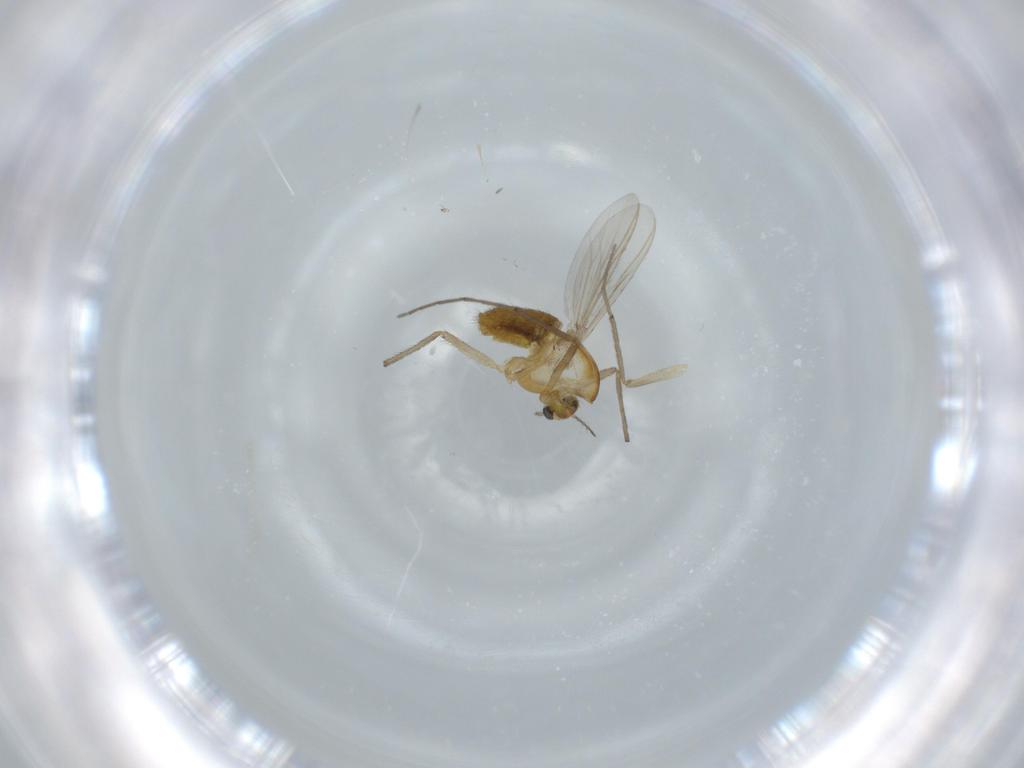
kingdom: Animalia
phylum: Arthropoda
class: Insecta
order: Diptera
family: Chironomidae
